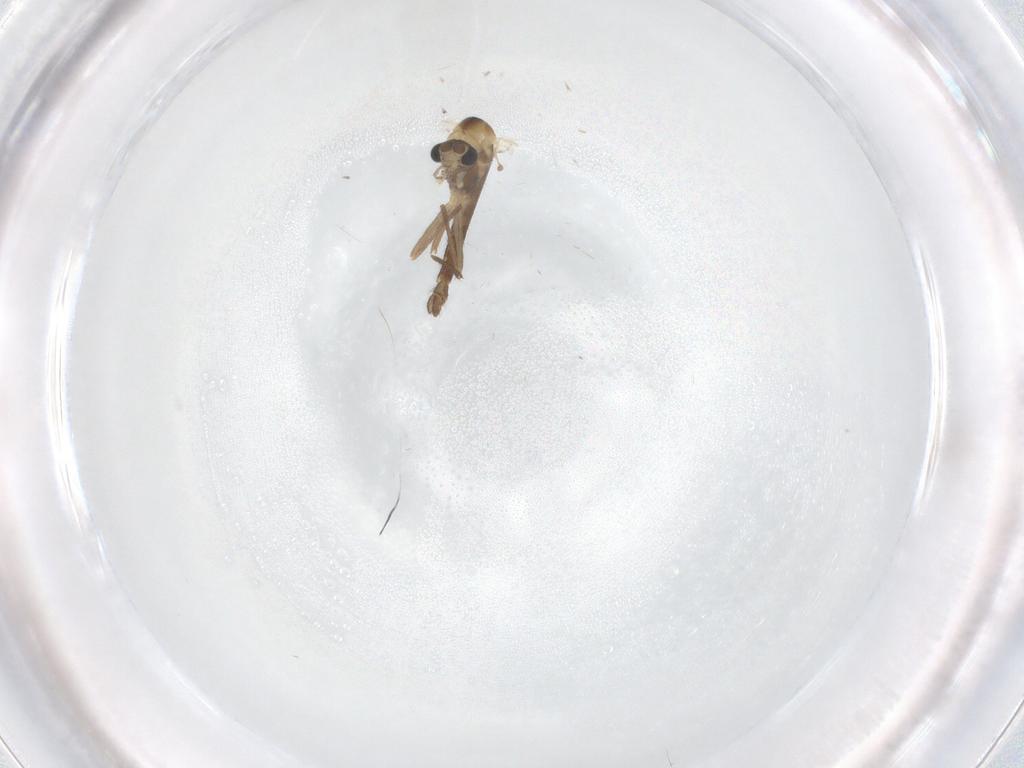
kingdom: Animalia
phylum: Arthropoda
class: Insecta
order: Diptera
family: Chironomidae
